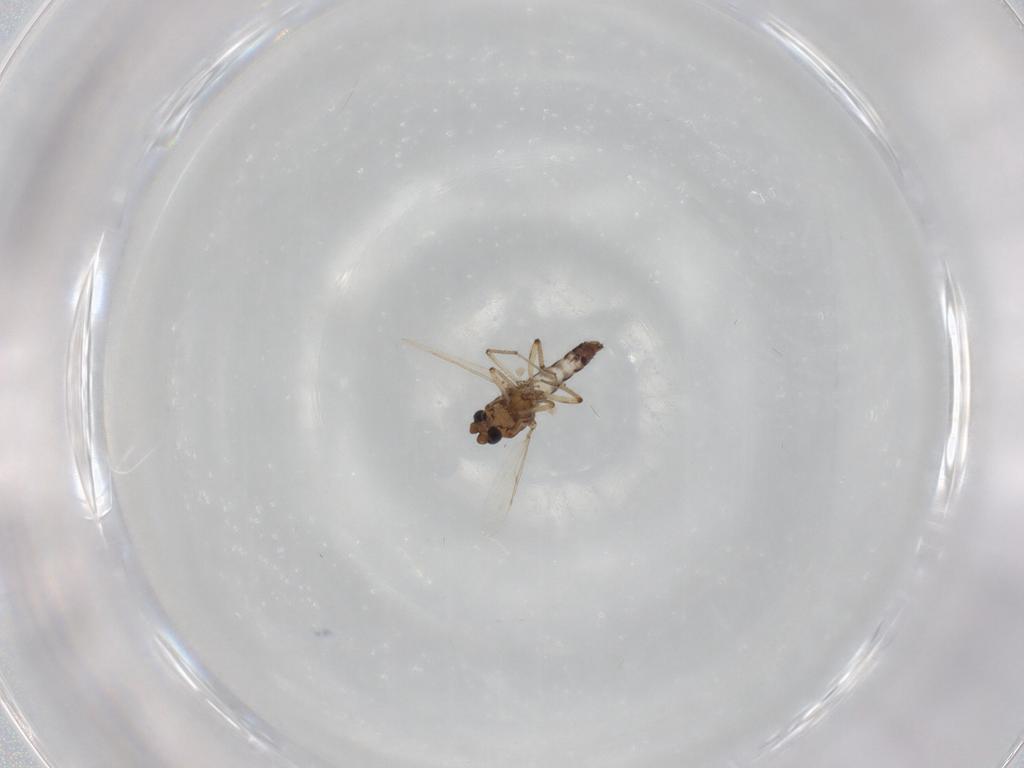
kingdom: Animalia
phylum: Arthropoda
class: Insecta
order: Diptera
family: Ceratopogonidae
